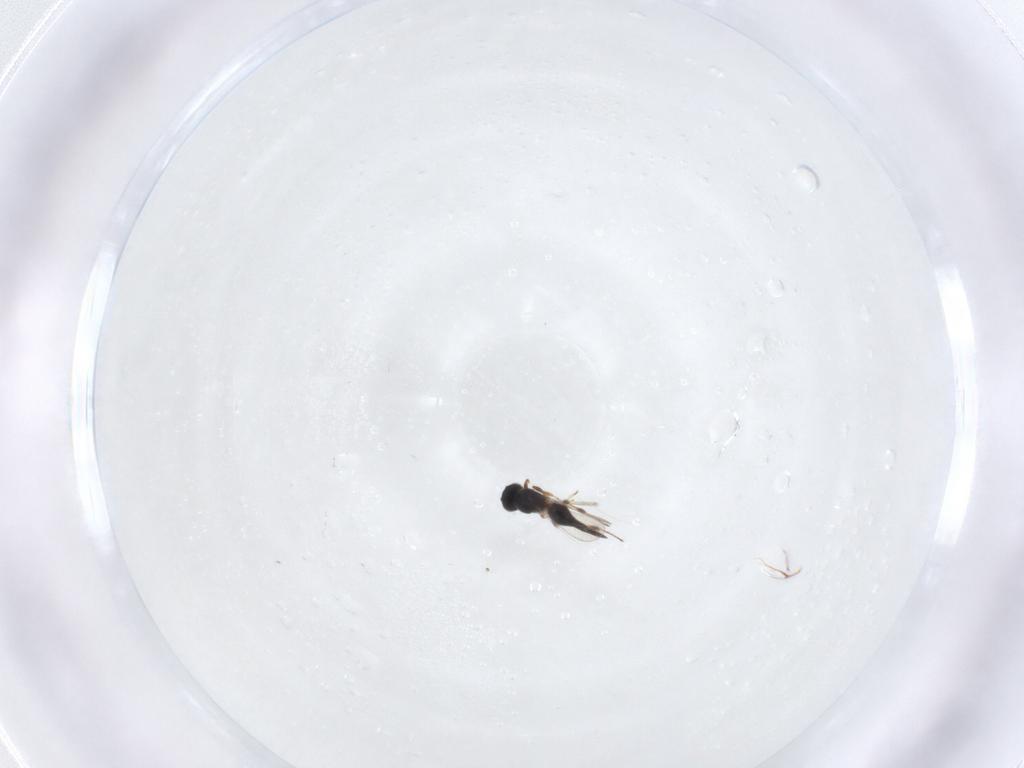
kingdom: Animalia
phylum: Arthropoda
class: Insecta
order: Hymenoptera
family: Platygastridae
